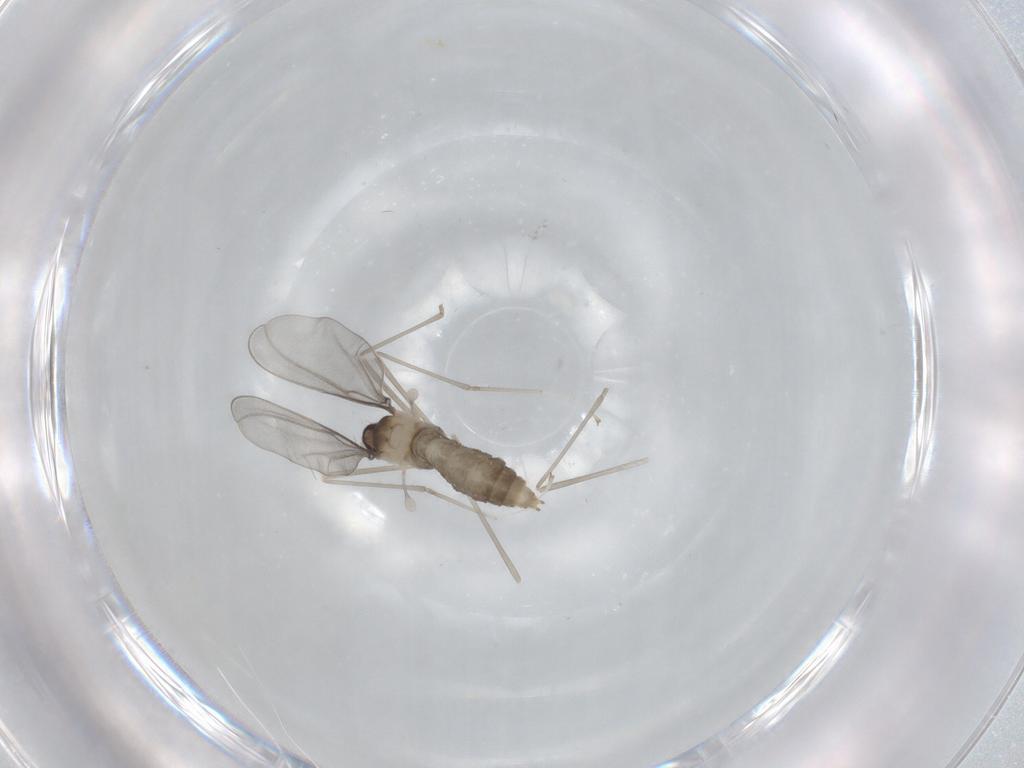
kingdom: Animalia
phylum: Arthropoda
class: Insecta
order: Diptera
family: Cecidomyiidae
